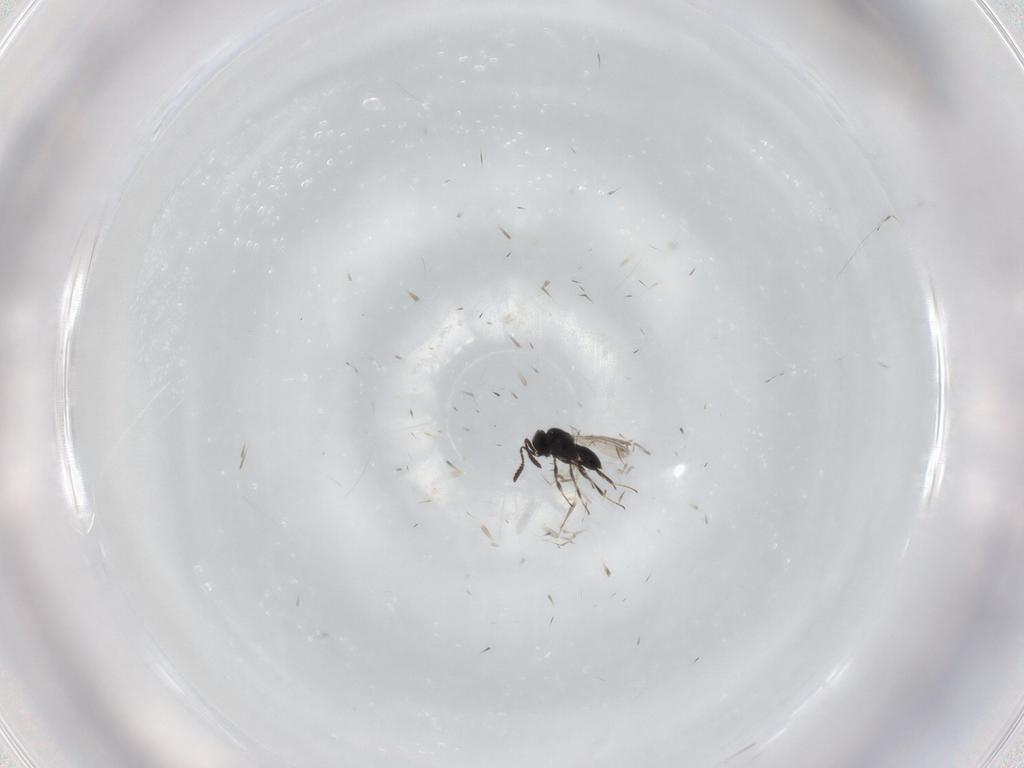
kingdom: Animalia
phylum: Arthropoda
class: Insecta
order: Hymenoptera
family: Scelionidae
